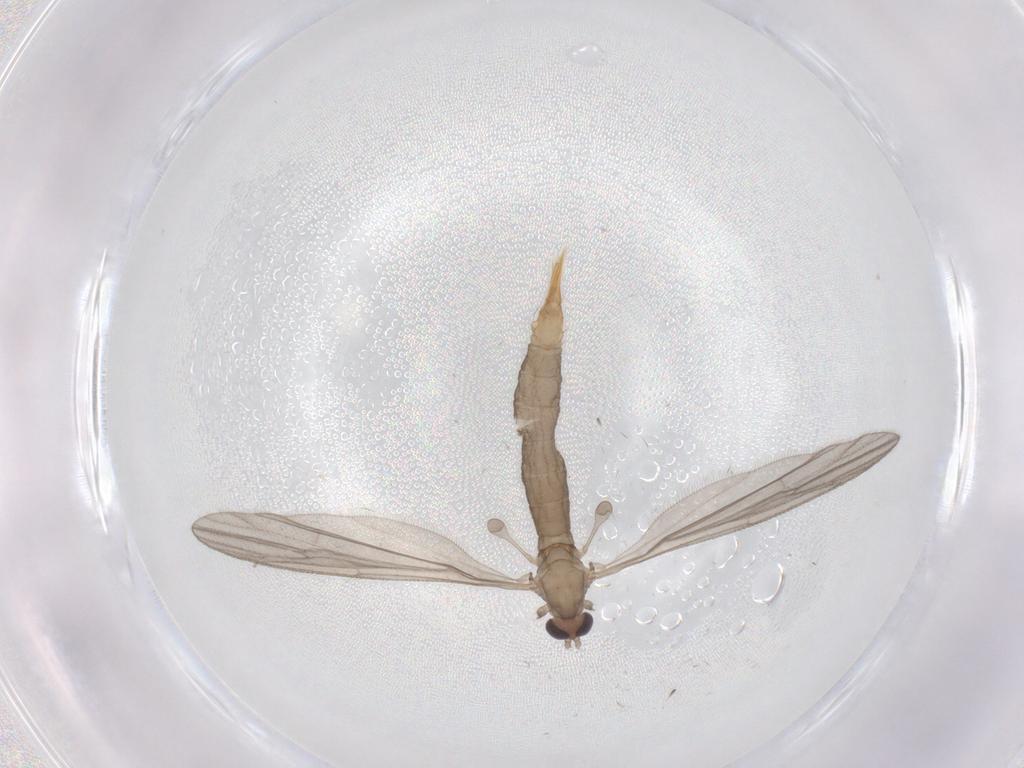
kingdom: Animalia
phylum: Arthropoda
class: Insecta
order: Diptera
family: Limoniidae
